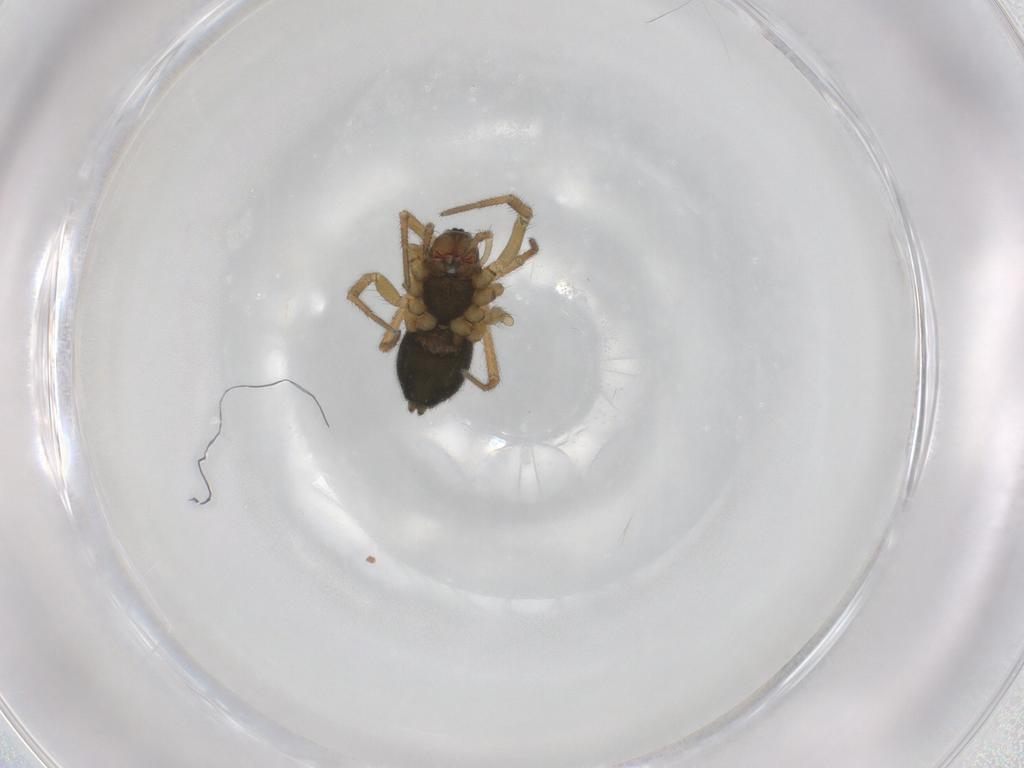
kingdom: Animalia
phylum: Arthropoda
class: Arachnida
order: Araneae
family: Linyphiidae
